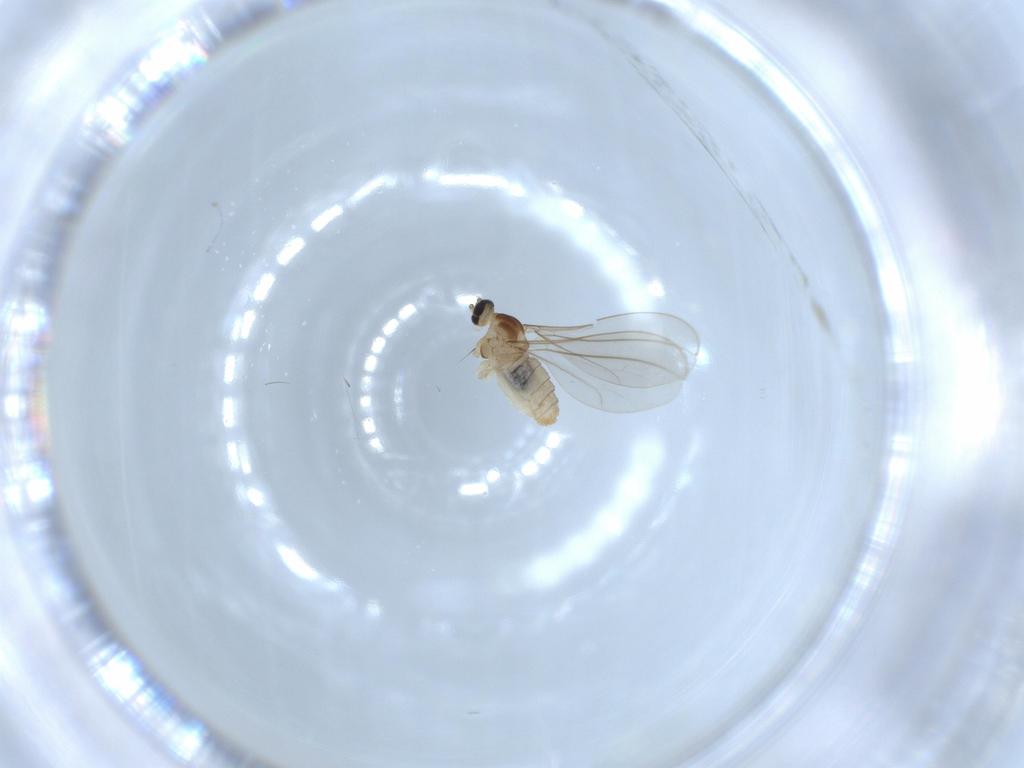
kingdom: Animalia
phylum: Arthropoda
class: Insecta
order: Diptera
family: Cecidomyiidae
